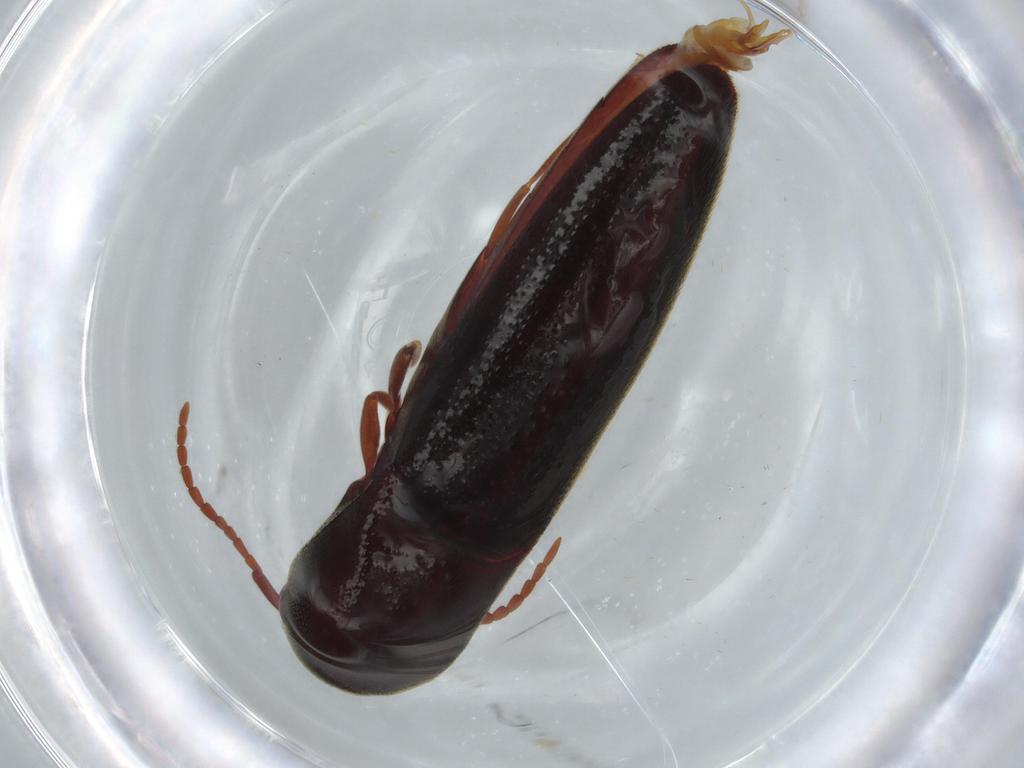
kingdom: Animalia
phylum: Arthropoda
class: Insecta
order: Coleoptera
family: Eucnemidae
